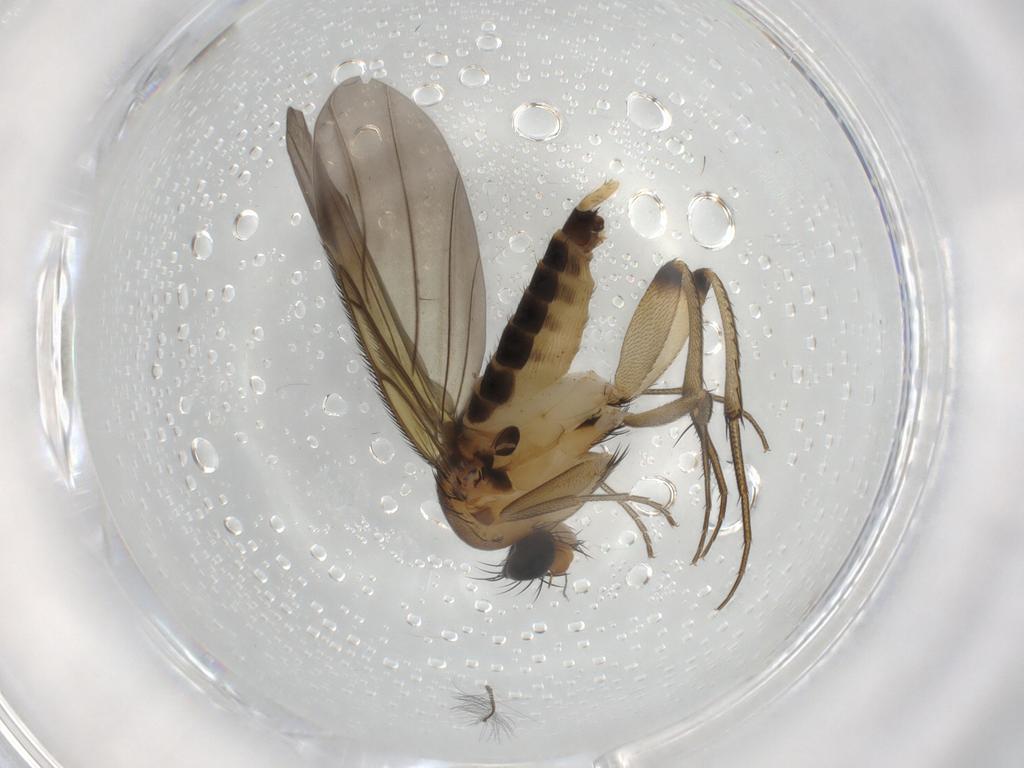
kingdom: Animalia
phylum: Arthropoda
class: Insecta
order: Diptera
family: Phoridae
